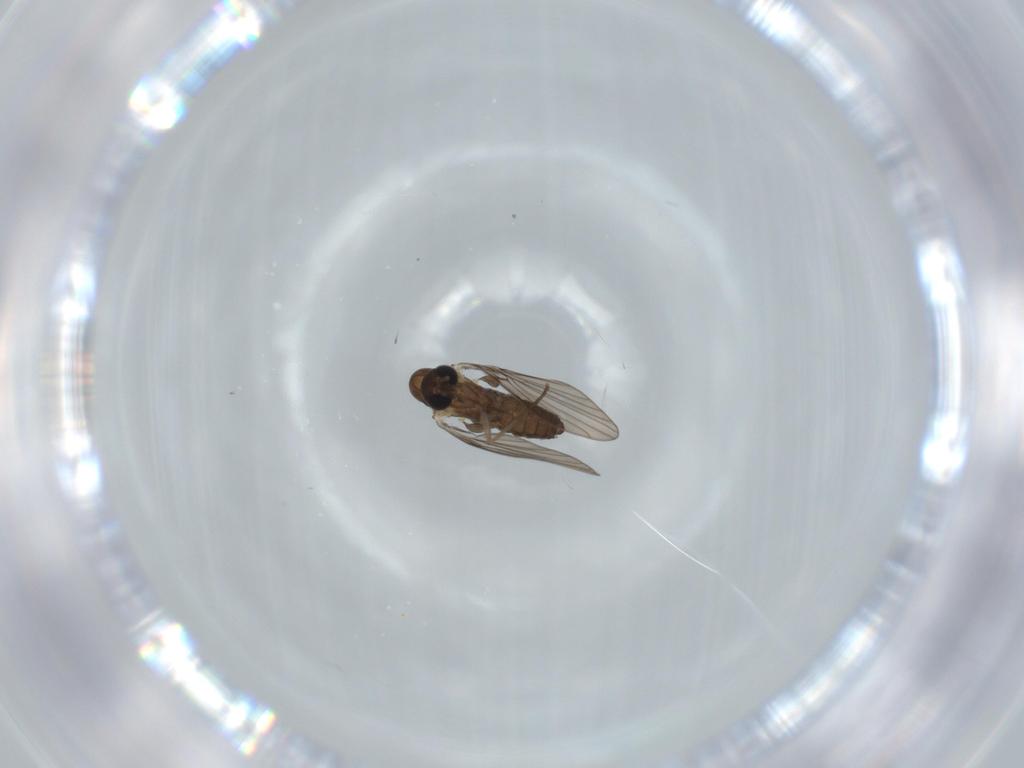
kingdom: Animalia
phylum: Arthropoda
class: Insecta
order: Diptera
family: Psychodidae
